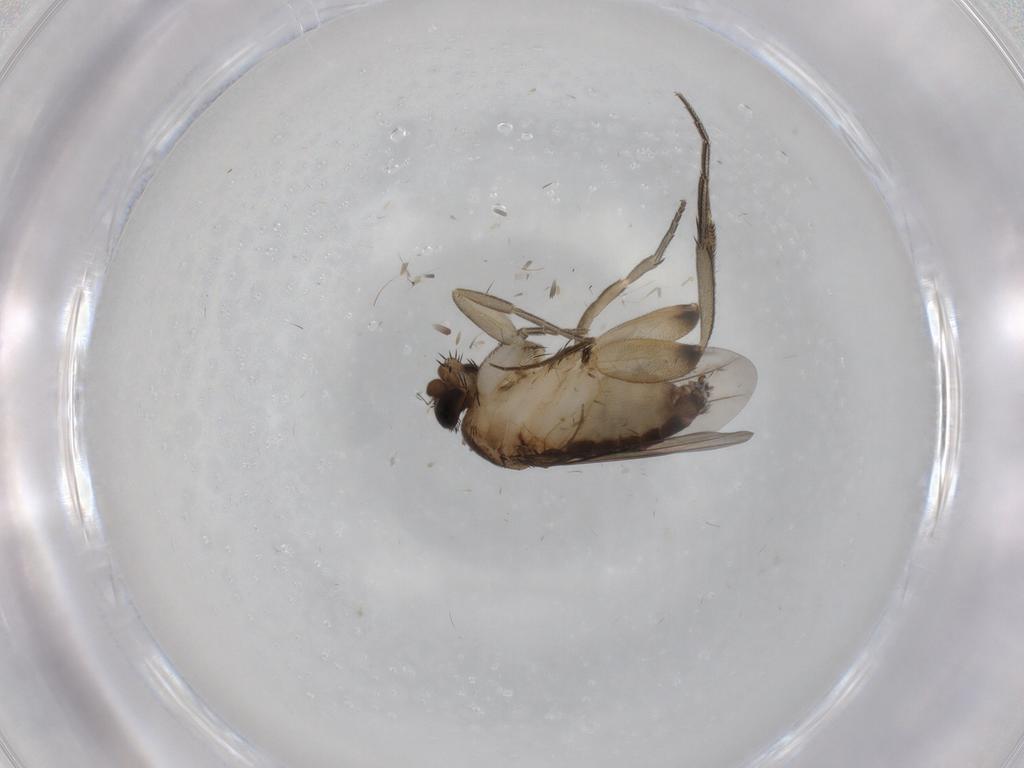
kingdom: Animalia
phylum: Arthropoda
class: Insecta
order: Diptera
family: Phoridae
